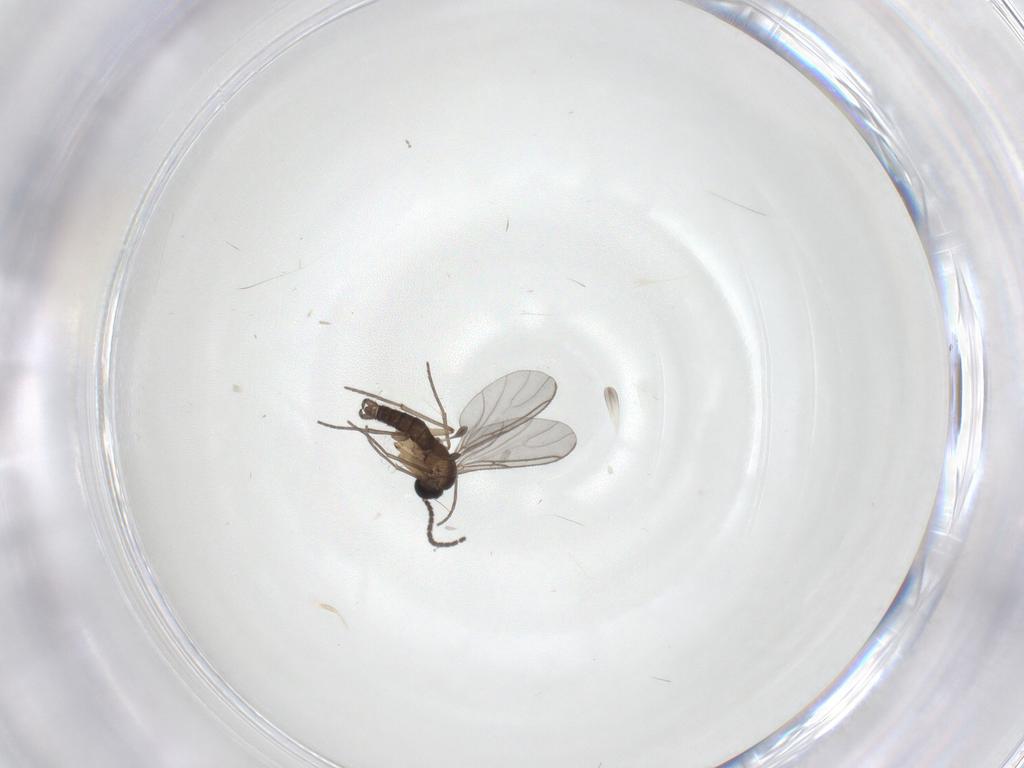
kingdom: Animalia
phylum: Arthropoda
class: Insecta
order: Diptera
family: Sciaridae
